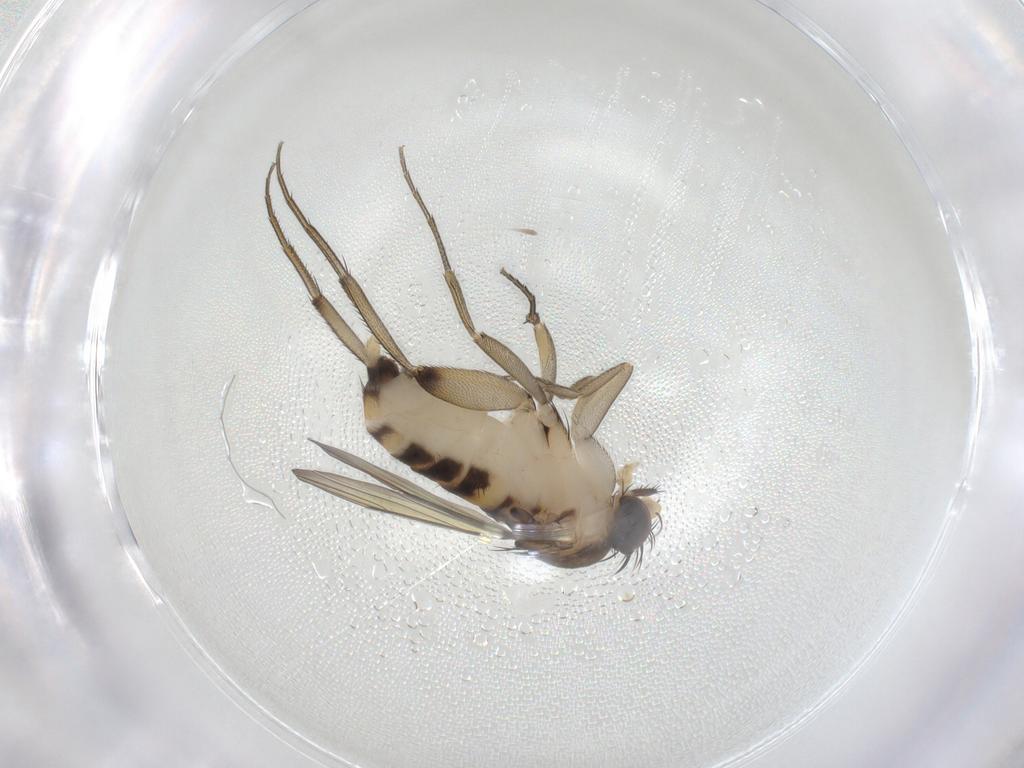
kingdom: Animalia
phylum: Arthropoda
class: Insecta
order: Diptera
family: Phoridae
